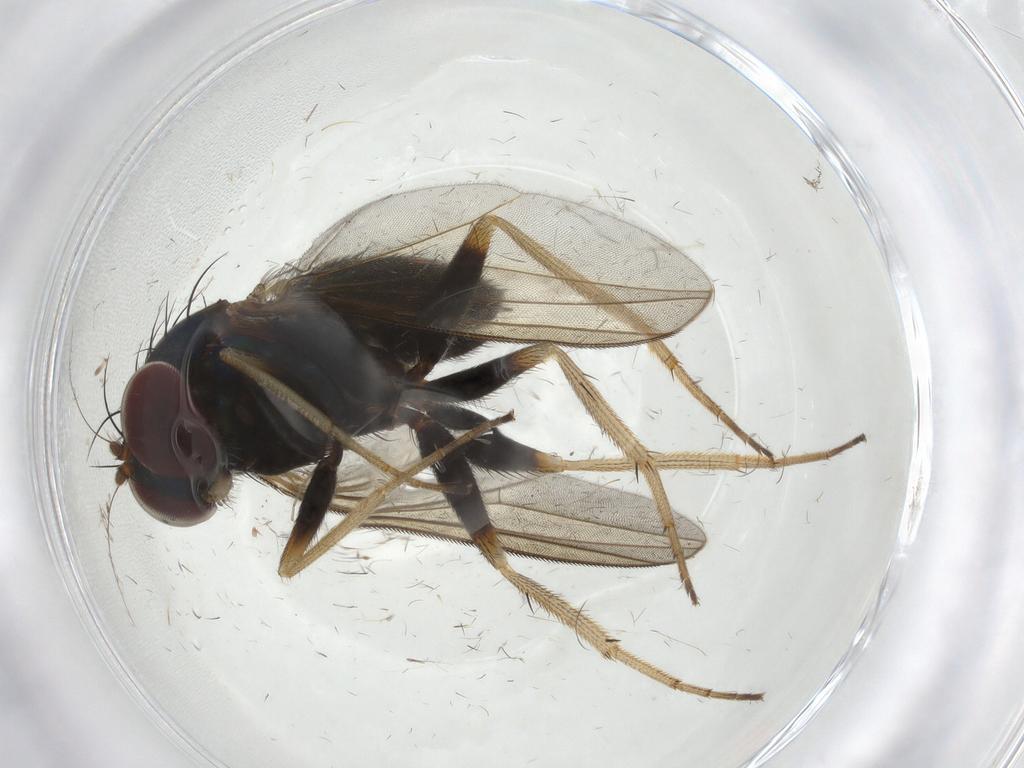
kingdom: Animalia
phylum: Arthropoda
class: Insecta
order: Diptera
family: Dolichopodidae
